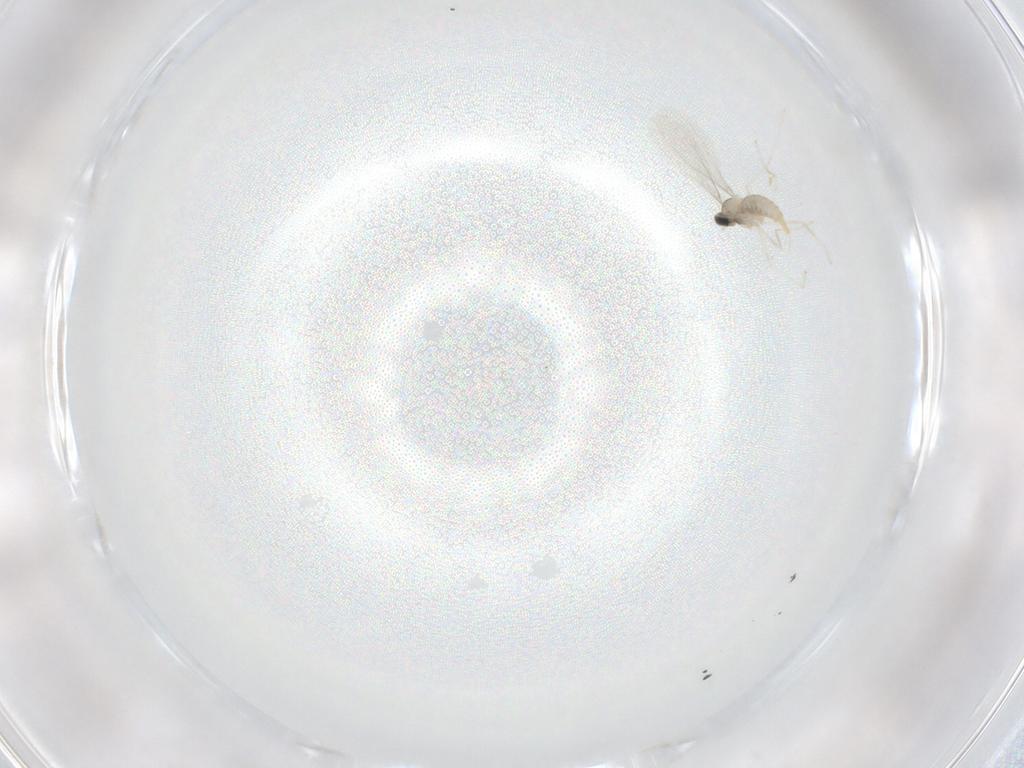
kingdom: Animalia
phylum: Arthropoda
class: Insecta
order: Diptera
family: Cecidomyiidae
